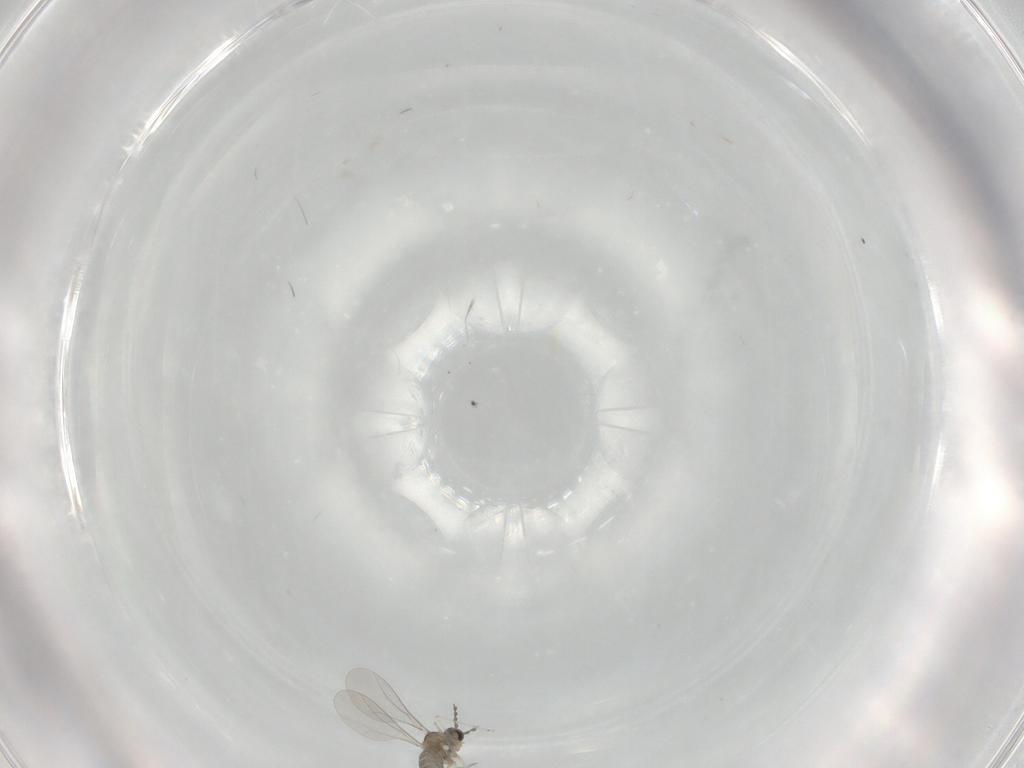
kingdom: Animalia
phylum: Arthropoda
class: Insecta
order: Diptera
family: Cecidomyiidae
